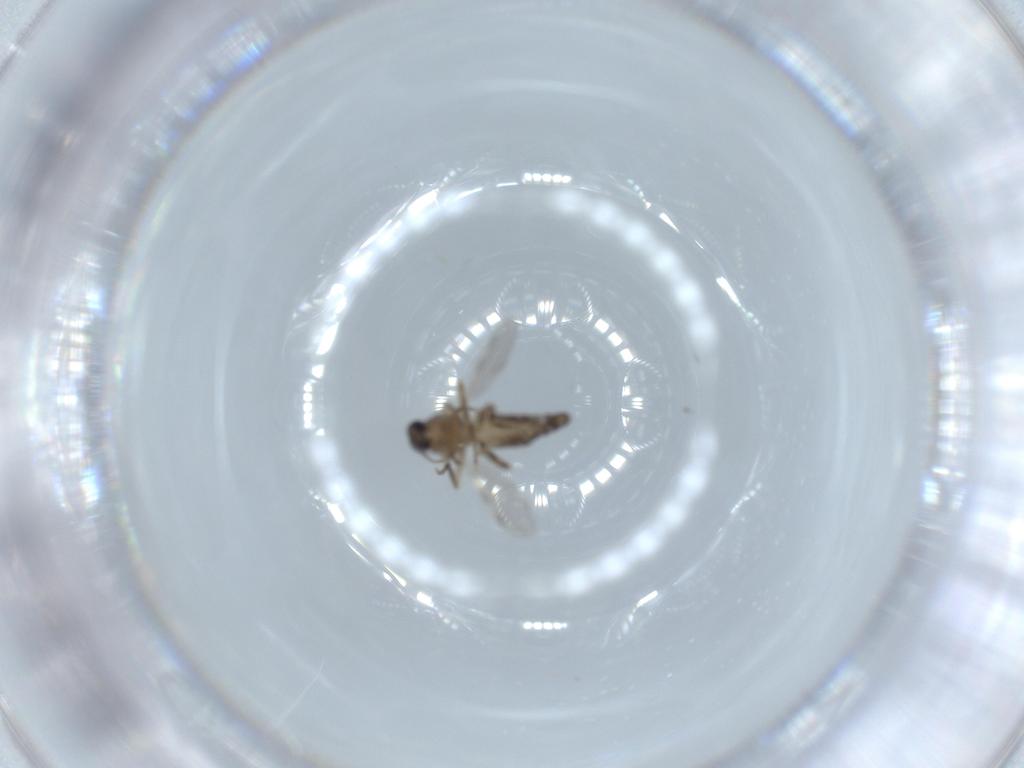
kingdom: Animalia
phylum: Arthropoda
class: Insecta
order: Diptera
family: Ceratopogonidae
